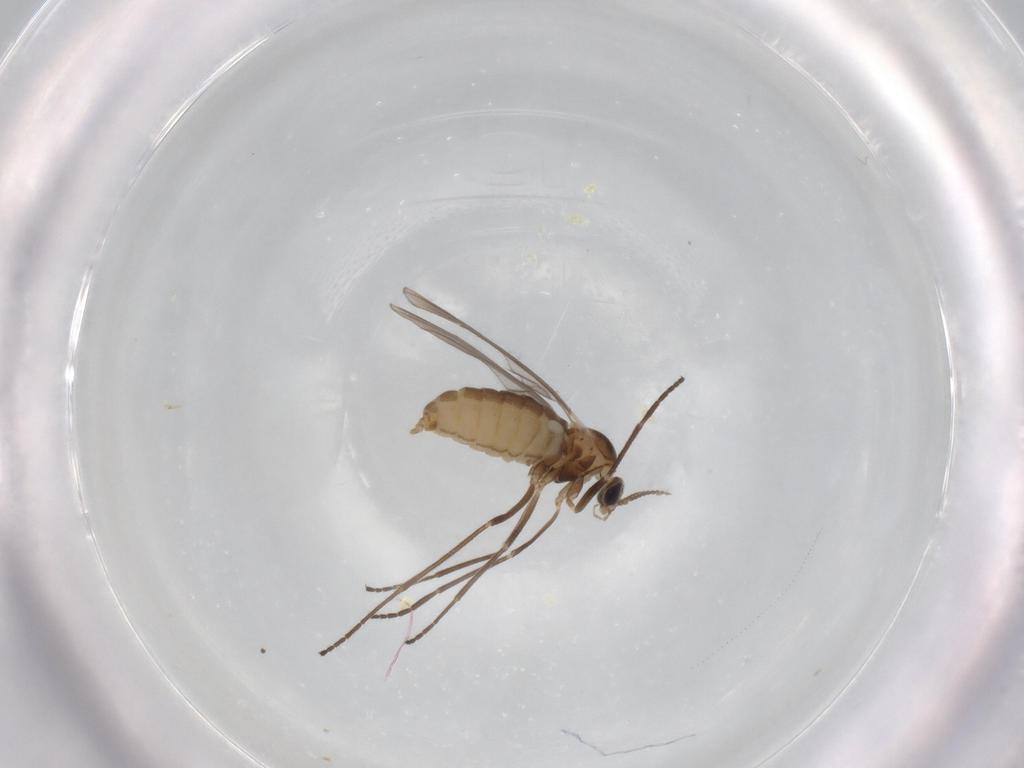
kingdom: Animalia
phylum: Arthropoda
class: Insecta
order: Diptera
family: Cecidomyiidae
